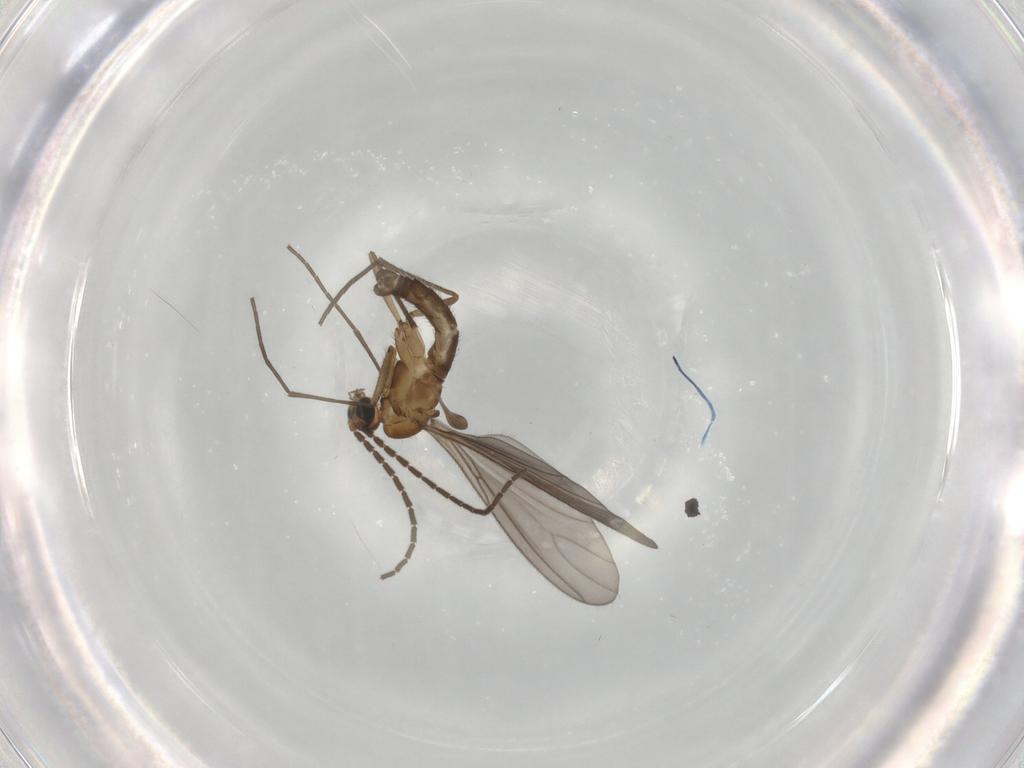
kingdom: Animalia
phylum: Arthropoda
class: Insecta
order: Diptera
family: Sciaridae
